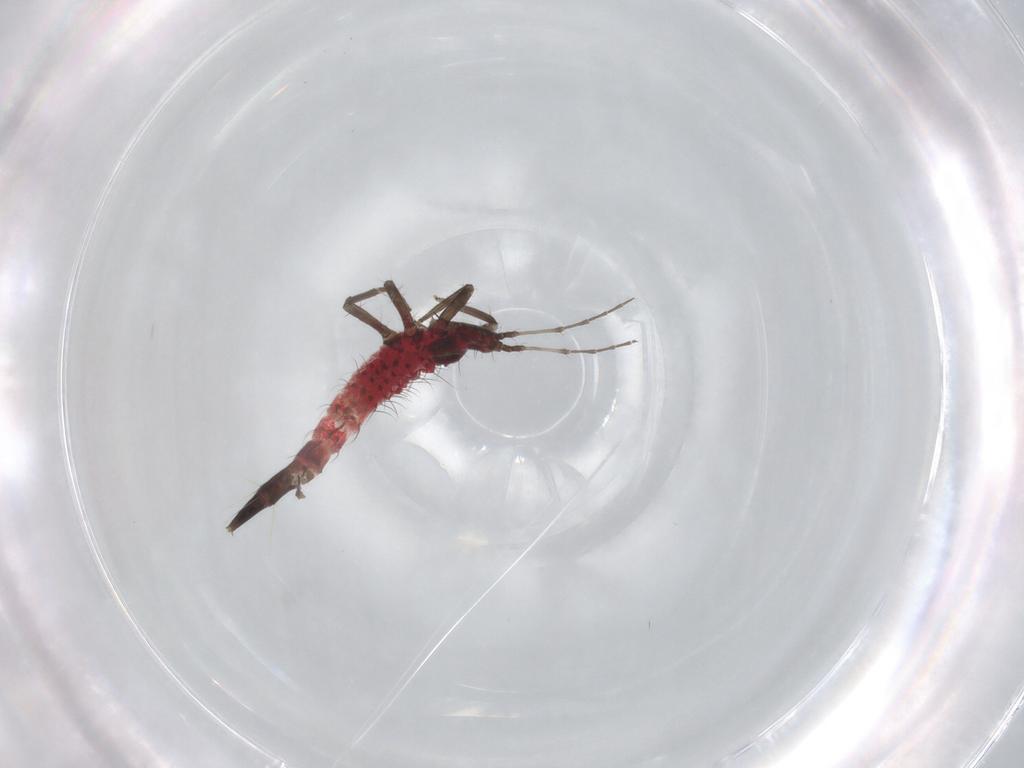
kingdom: Animalia
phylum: Arthropoda
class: Insecta
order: Thysanoptera
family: Phlaeothripidae
